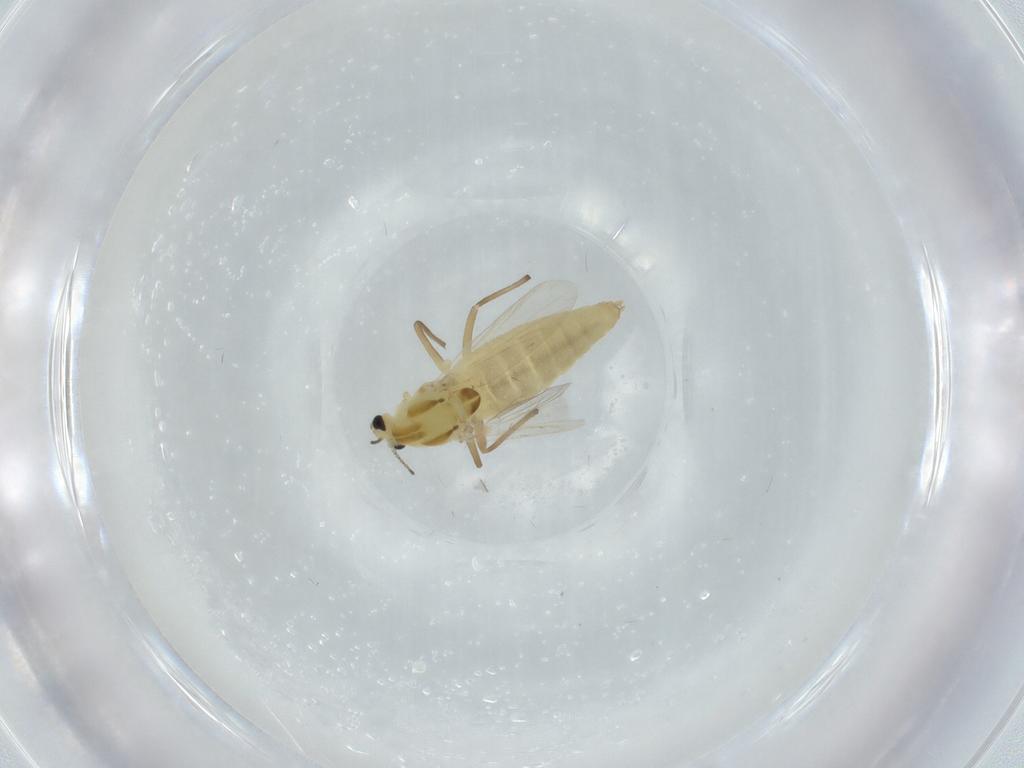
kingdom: Animalia
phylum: Arthropoda
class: Insecta
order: Diptera
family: Chironomidae
